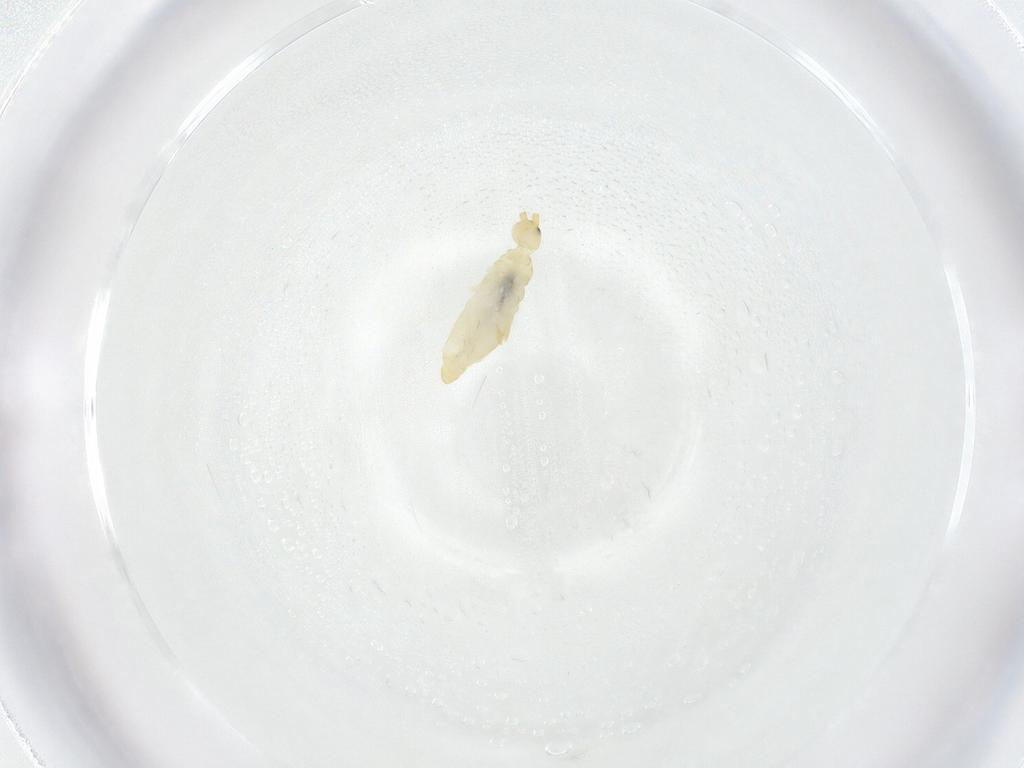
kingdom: Animalia
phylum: Arthropoda
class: Collembola
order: Entomobryomorpha
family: Entomobryidae
